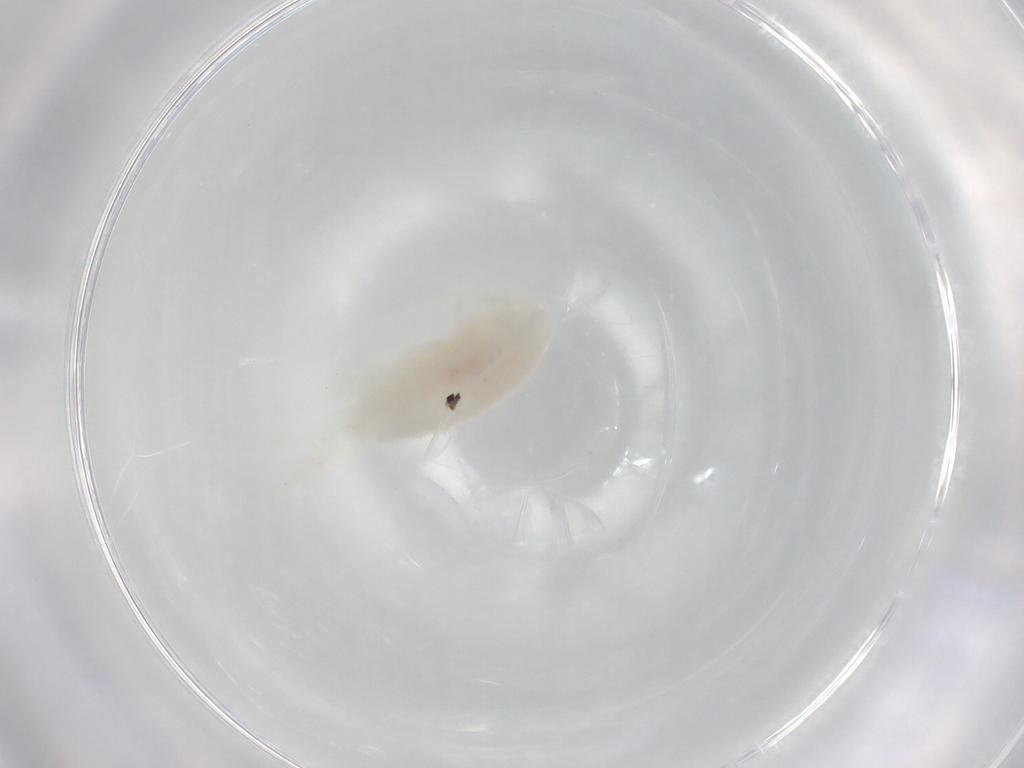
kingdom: Animalia
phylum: Arthropoda
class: Copepoda
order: Calanoida
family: Diaptomidae
